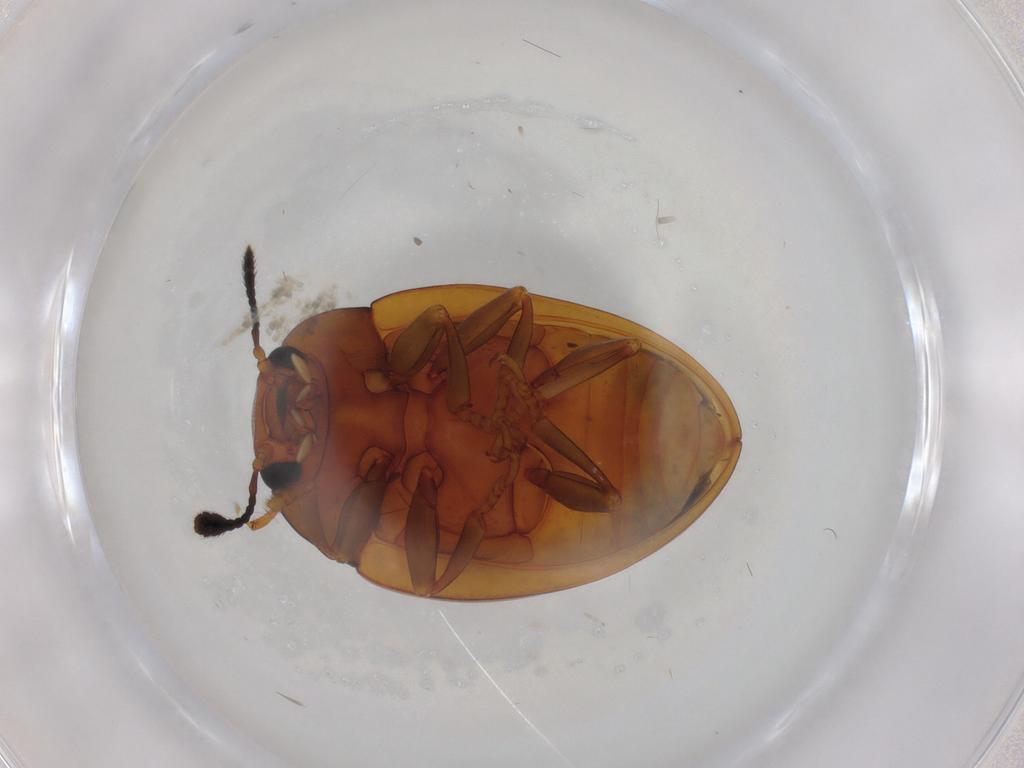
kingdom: Animalia
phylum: Arthropoda
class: Insecta
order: Coleoptera
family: Erotylidae
